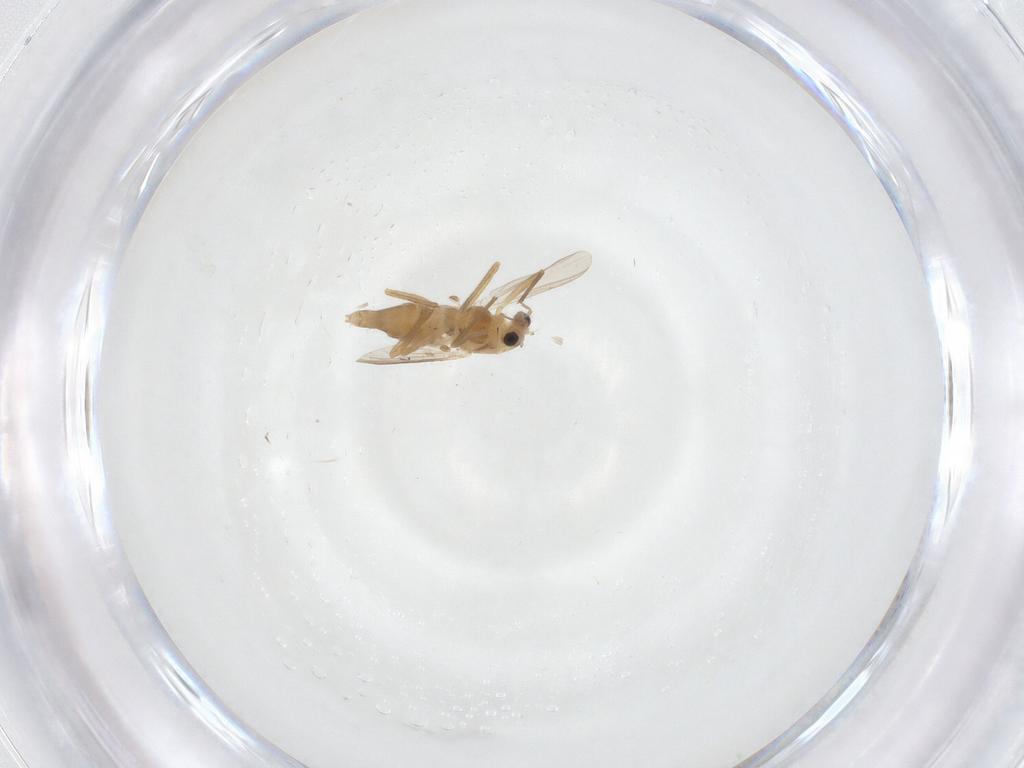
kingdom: Animalia
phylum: Arthropoda
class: Insecta
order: Diptera
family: Chironomidae
